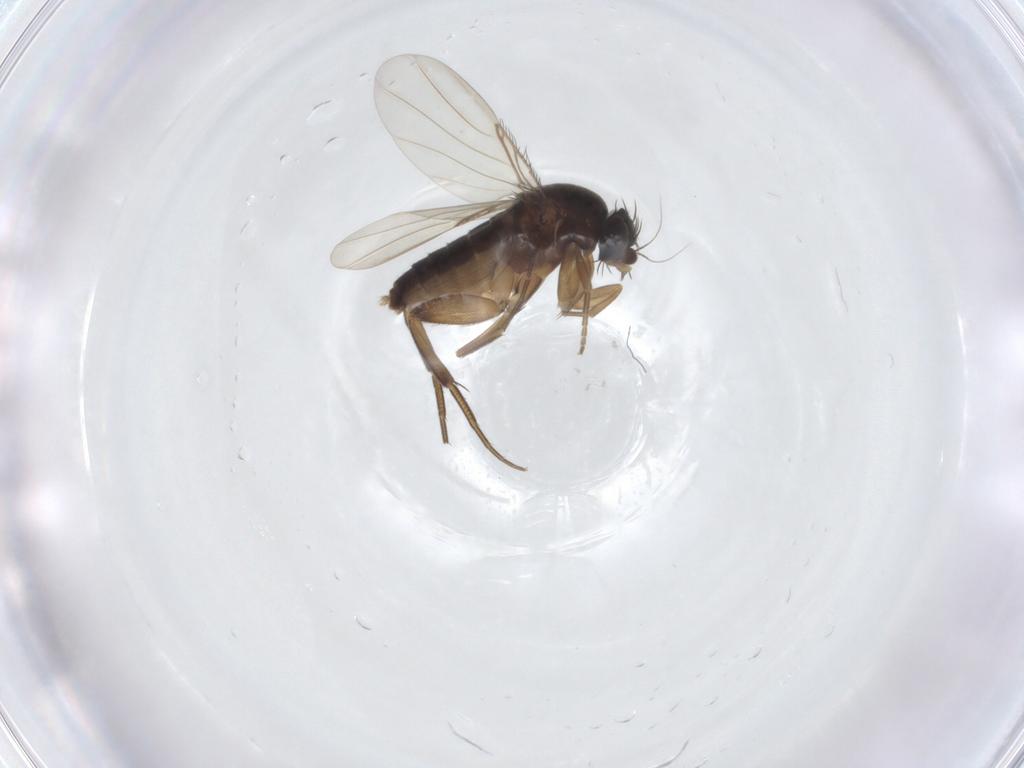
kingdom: Animalia
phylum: Arthropoda
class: Insecta
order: Diptera
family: Phoridae
